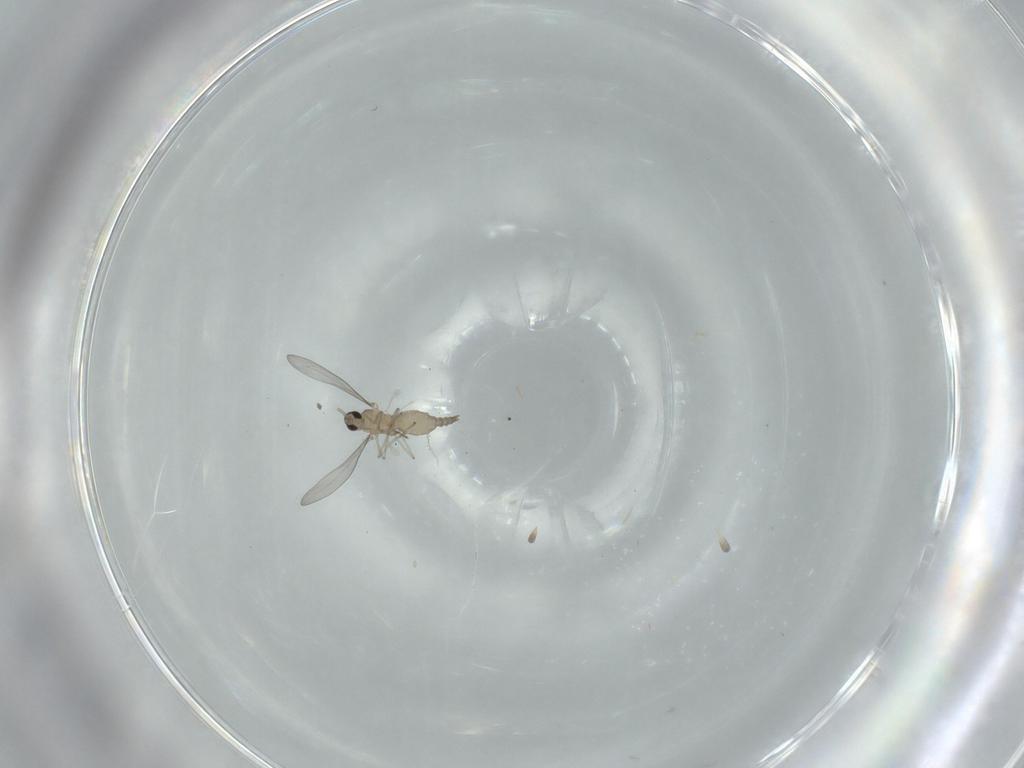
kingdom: Animalia
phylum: Arthropoda
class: Insecta
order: Diptera
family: Cecidomyiidae
